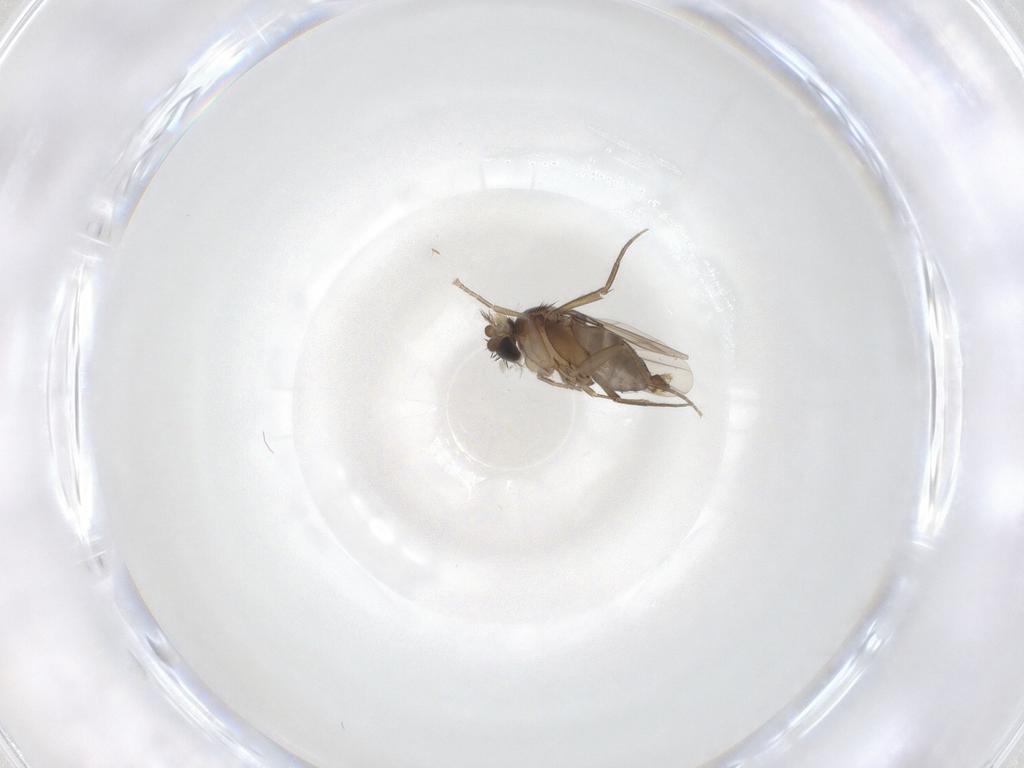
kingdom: Animalia
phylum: Arthropoda
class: Insecta
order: Diptera
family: Phoridae
